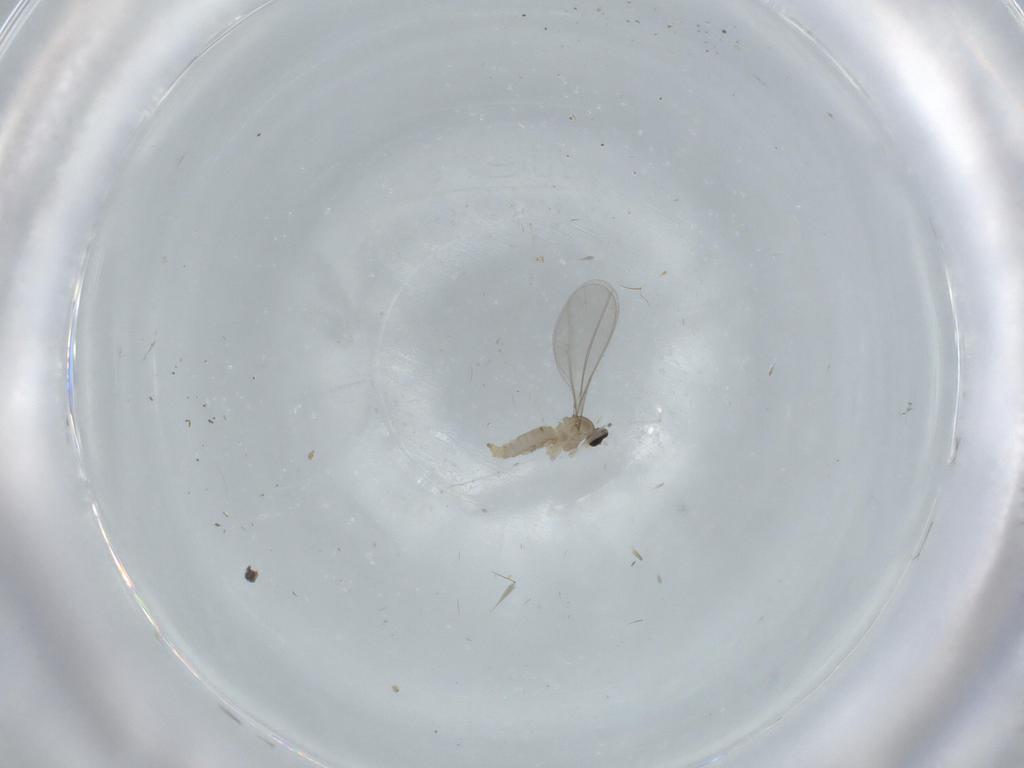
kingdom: Animalia
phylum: Arthropoda
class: Insecta
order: Diptera
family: Cecidomyiidae
